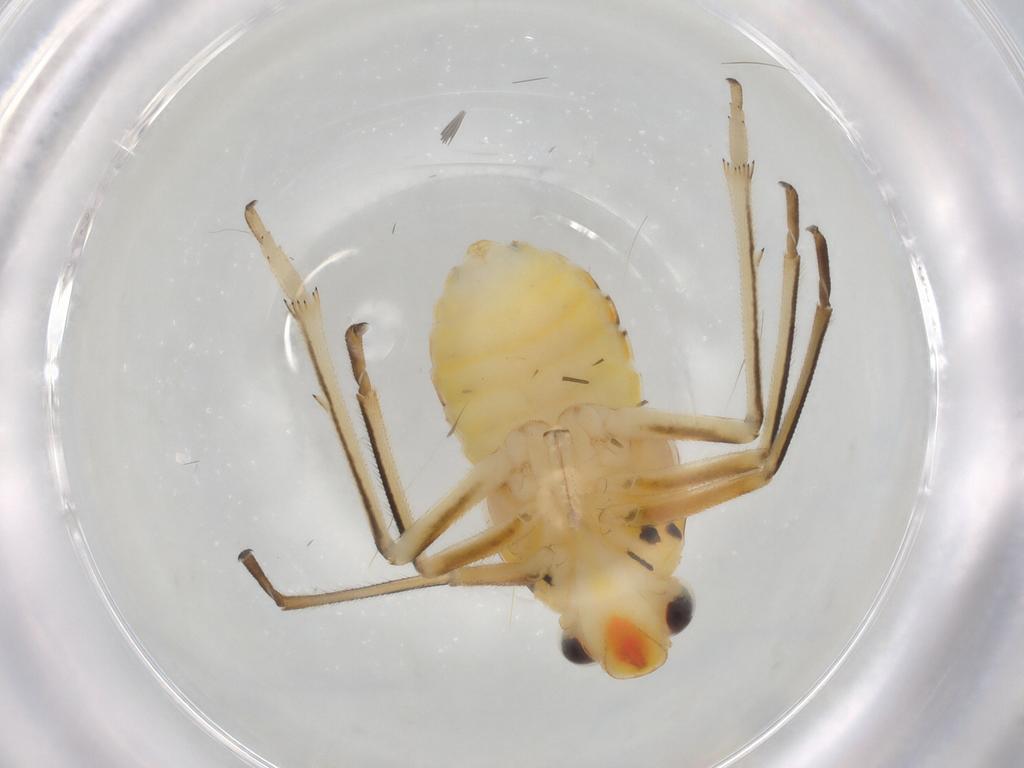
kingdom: Animalia
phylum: Arthropoda
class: Insecta
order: Hemiptera
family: Caliscelidae
